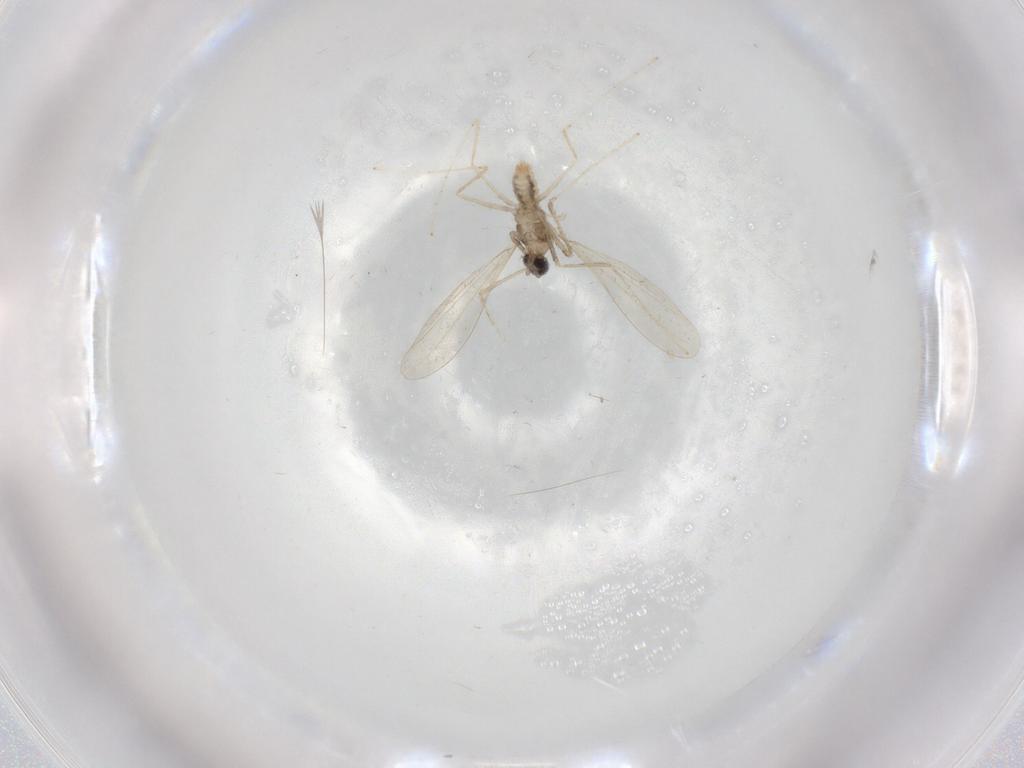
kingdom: Animalia
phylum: Arthropoda
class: Insecta
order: Diptera
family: Cecidomyiidae
